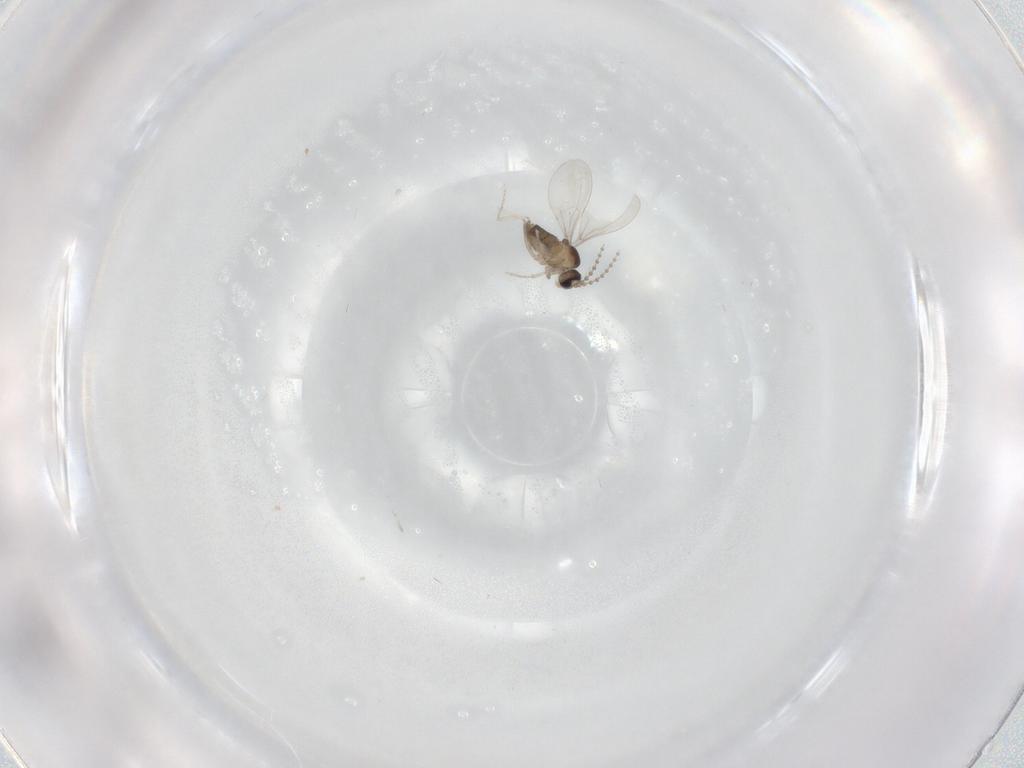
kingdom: Animalia
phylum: Arthropoda
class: Insecta
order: Diptera
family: Cecidomyiidae
